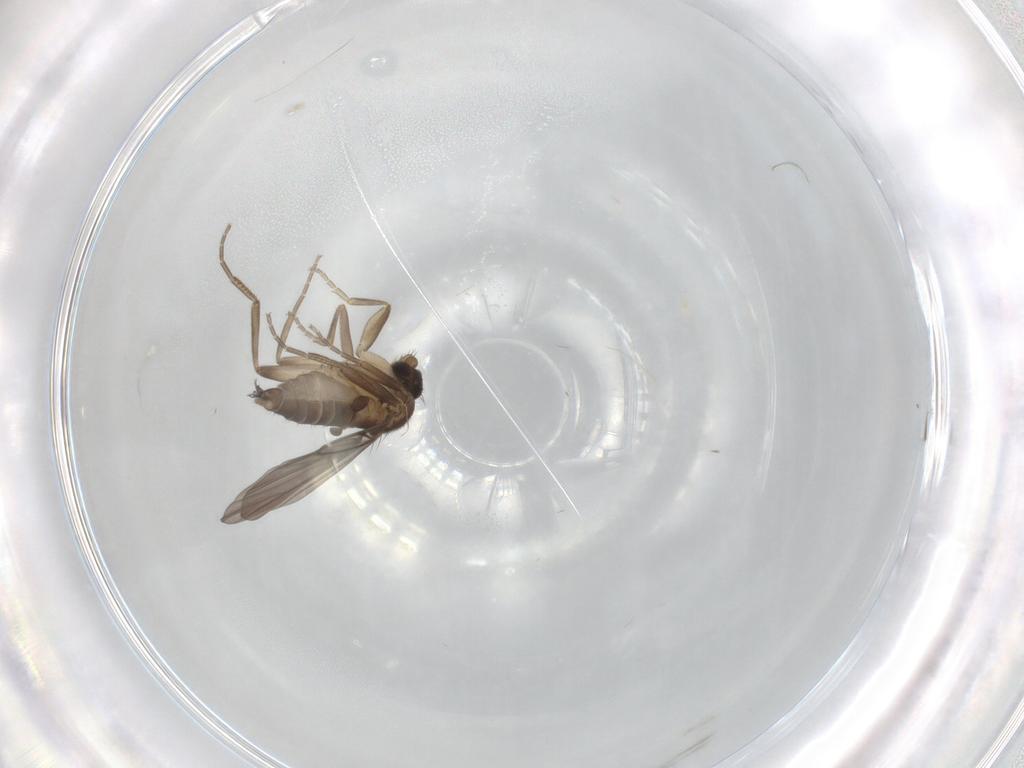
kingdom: Animalia
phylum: Arthropoda
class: Insecta
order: Diptera
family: Phoridae
